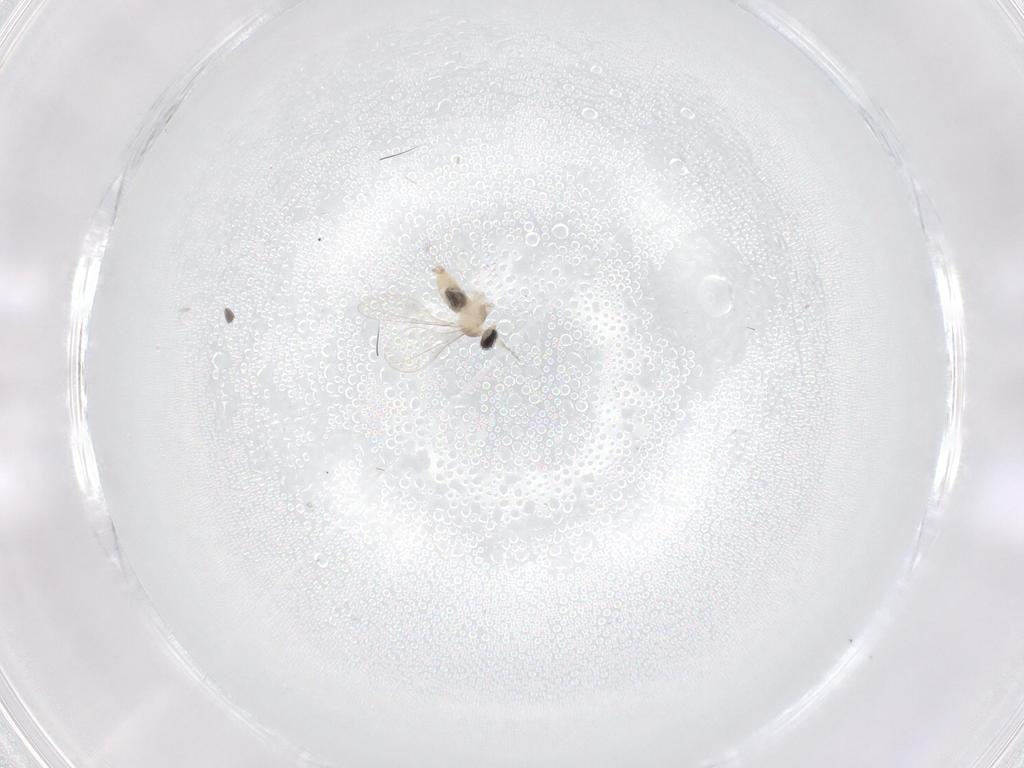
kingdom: Animalia
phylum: Arthropoda
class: Insecta
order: Diptera
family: Cecidomyiidae
